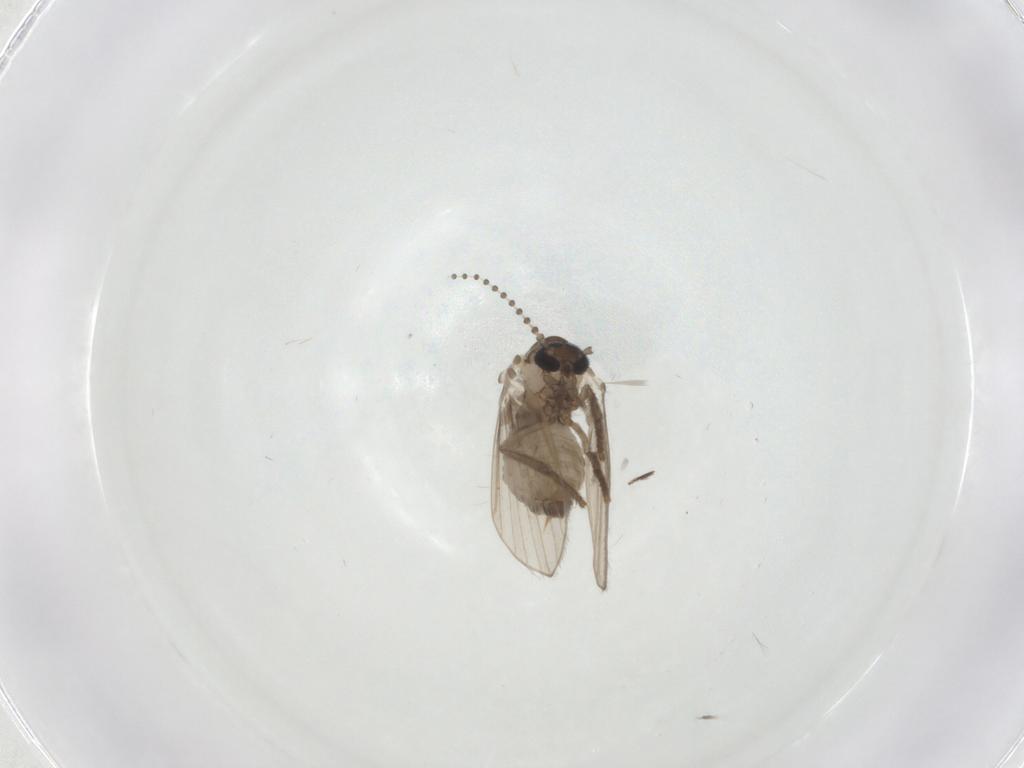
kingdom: Animalia
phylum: Arthropoda
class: Insecta
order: Diptera
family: Psychodidae
